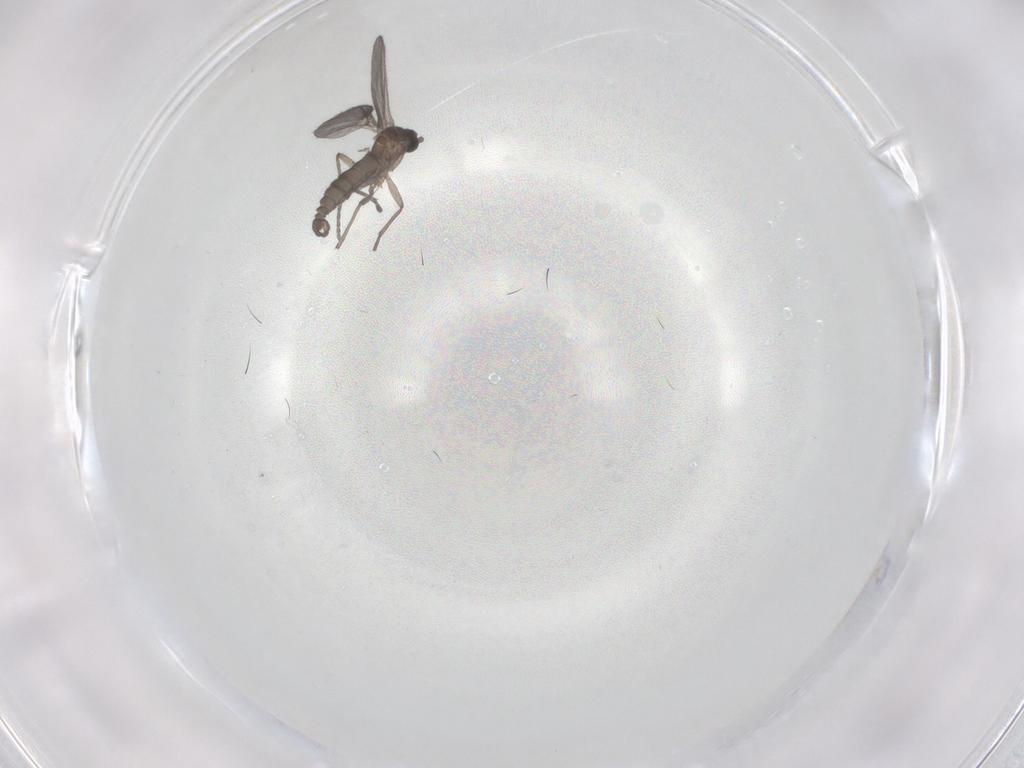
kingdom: Animalia
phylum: Arthropoda
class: Insecta
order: Diptera
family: Sciaridae
